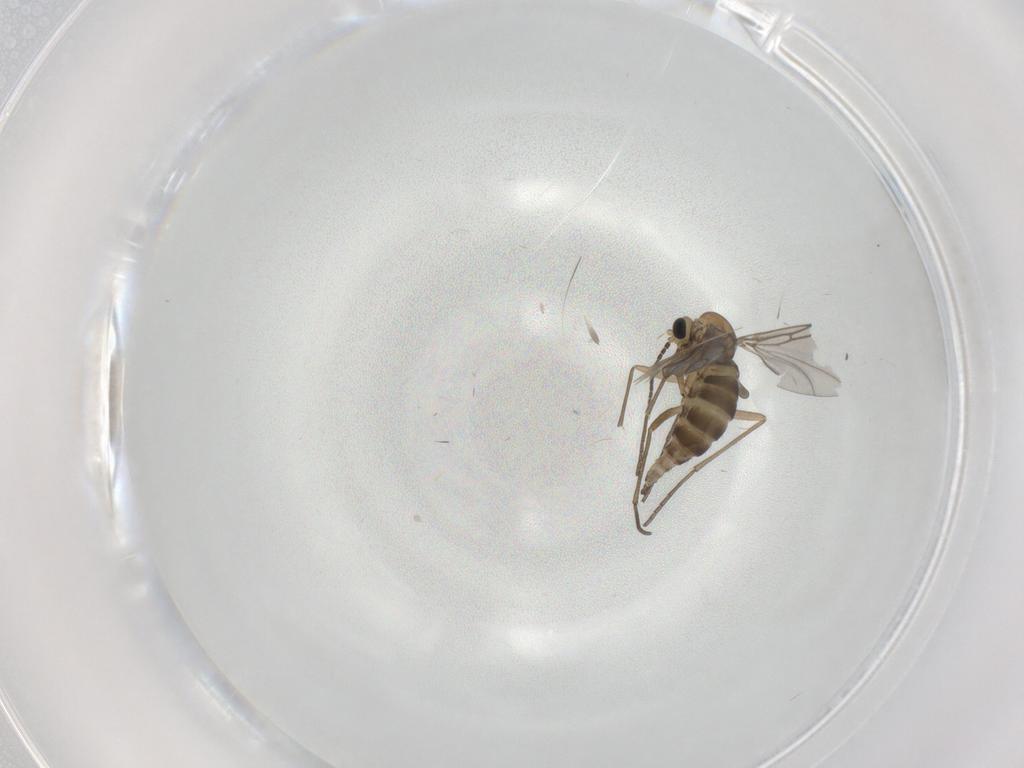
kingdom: Animalia
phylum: Arthropoda
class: Insecta
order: Diptera
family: Sciaridae
